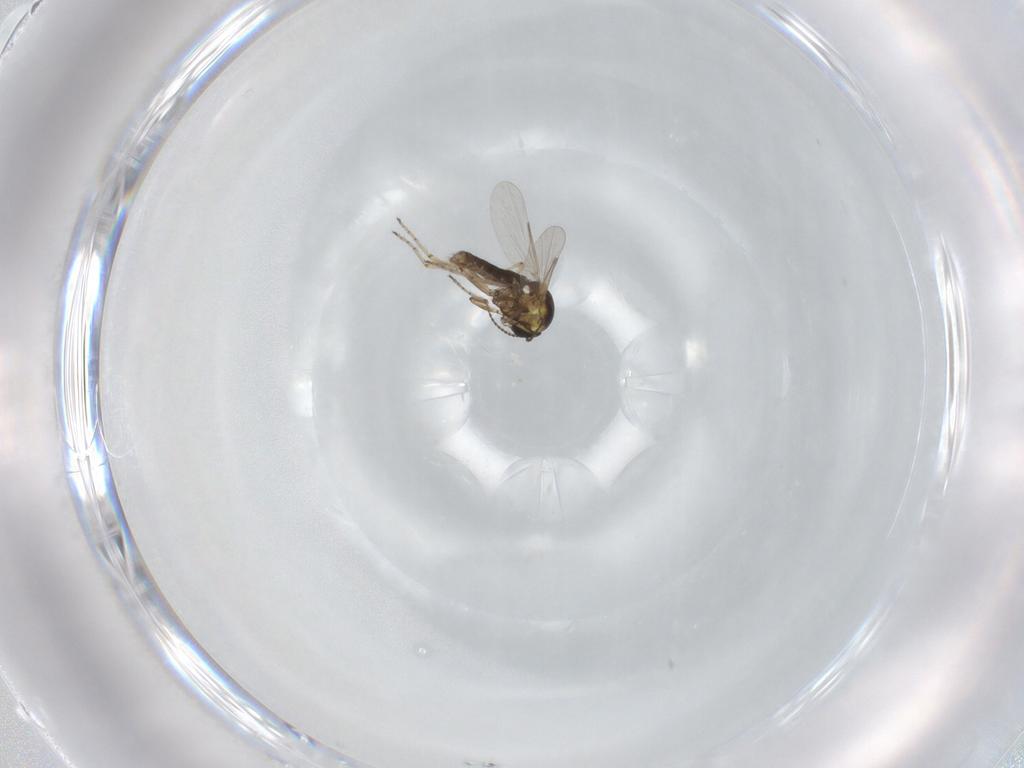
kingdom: Animalia
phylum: Arthropoda
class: Insecta
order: Diptera
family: Ceratopogonidae
